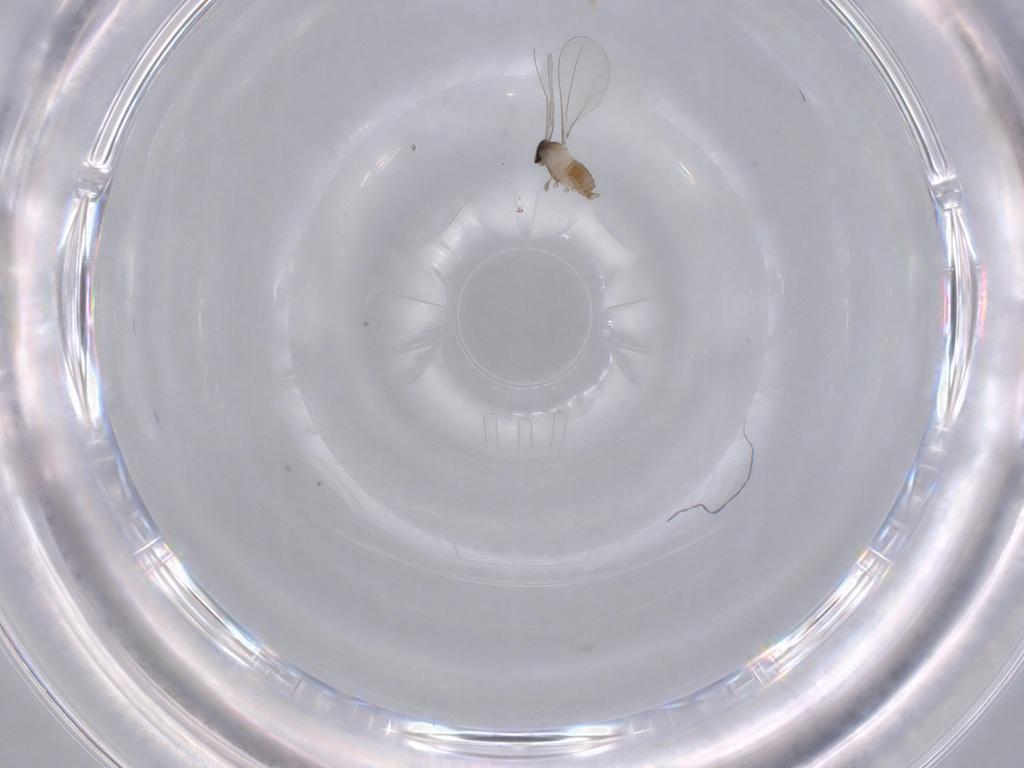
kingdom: Animalia
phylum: Arthropoda
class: Insecta
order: Diptera
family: Cecidomyiidae
